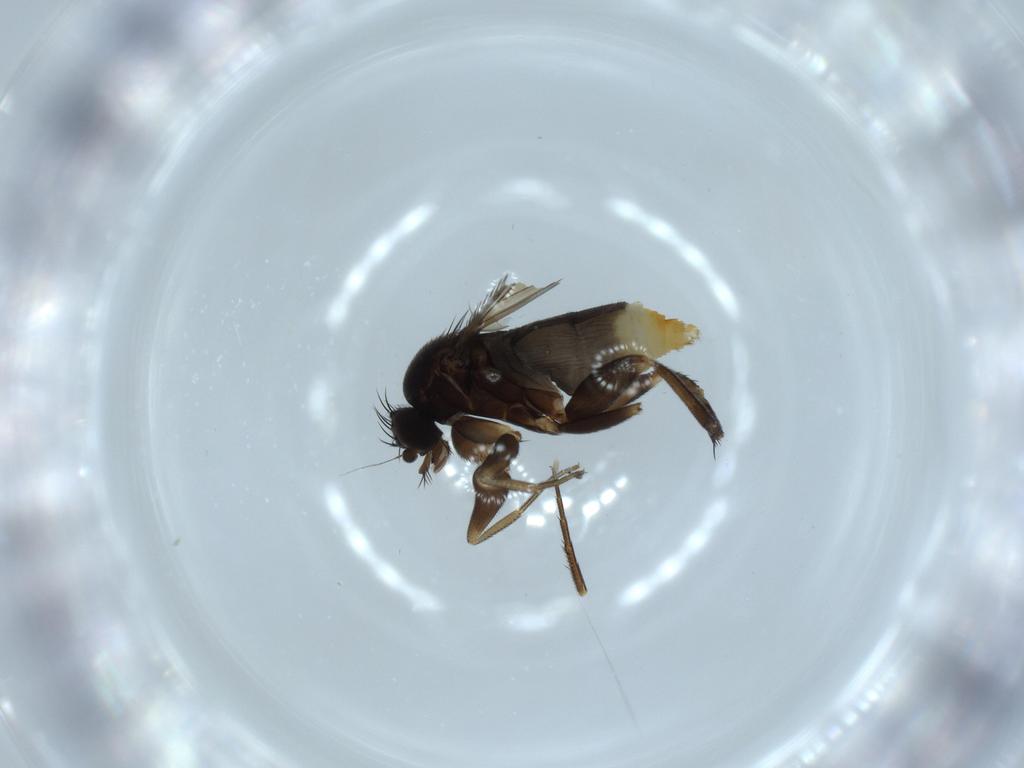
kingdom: Animalia
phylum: Arthropoda
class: Insecta
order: Diptera
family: Phoridae
